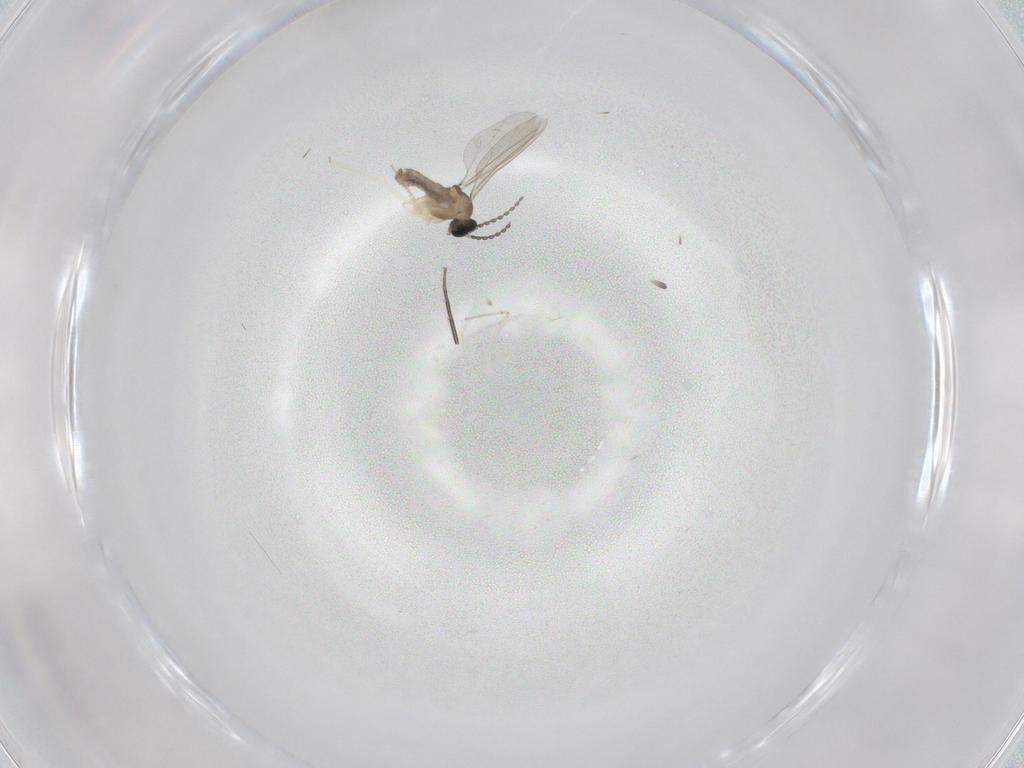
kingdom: Animalia
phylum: Arthropoda
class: Insecta
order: Diptera
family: Cecidomyiidae
